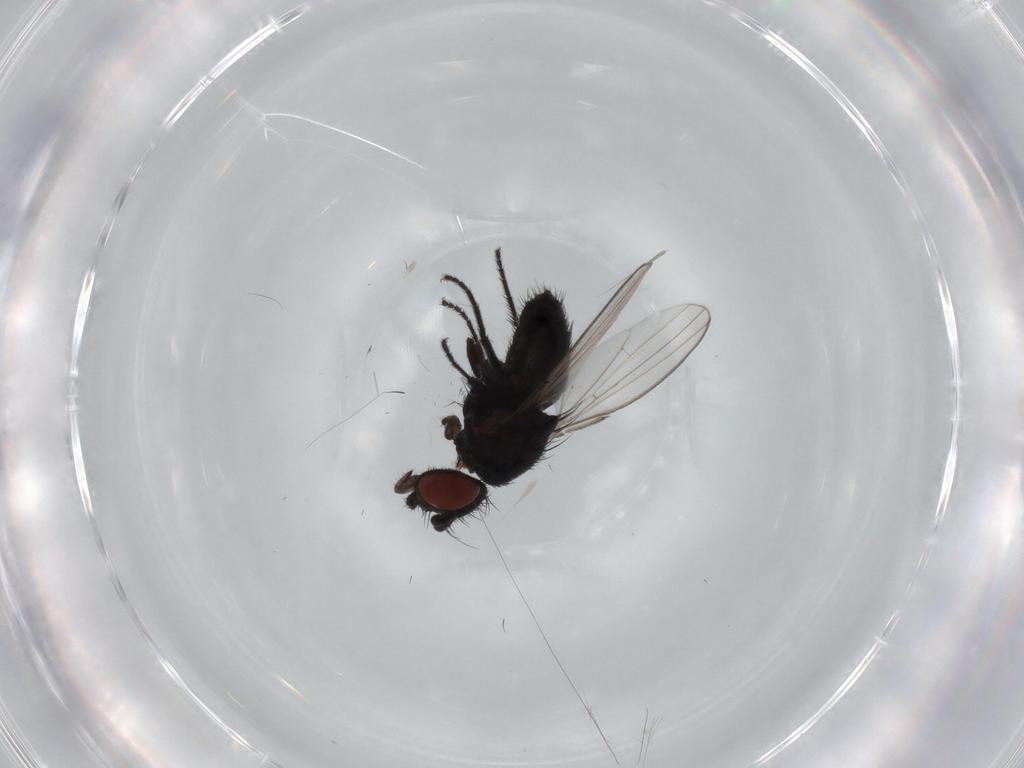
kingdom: Animalia
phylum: Arthropoda
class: Insecta
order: Diptera
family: Milichiidae
